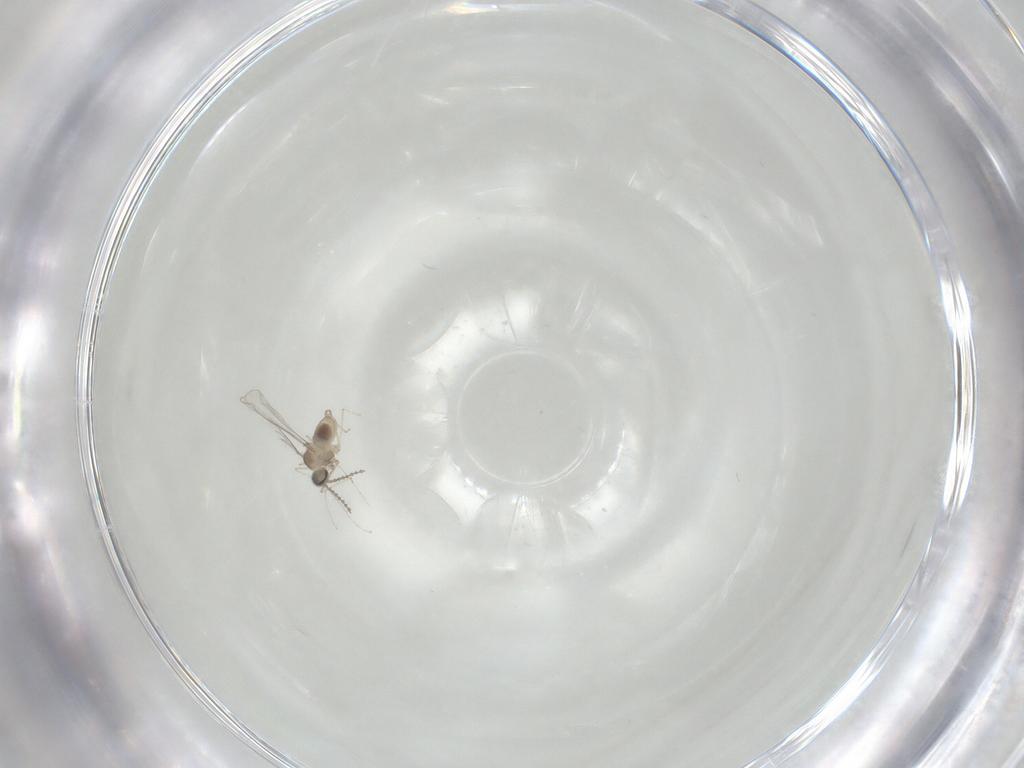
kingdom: Animalia
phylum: Arthropoda
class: Insecta
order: Diptera
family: Cecidomyiidae
